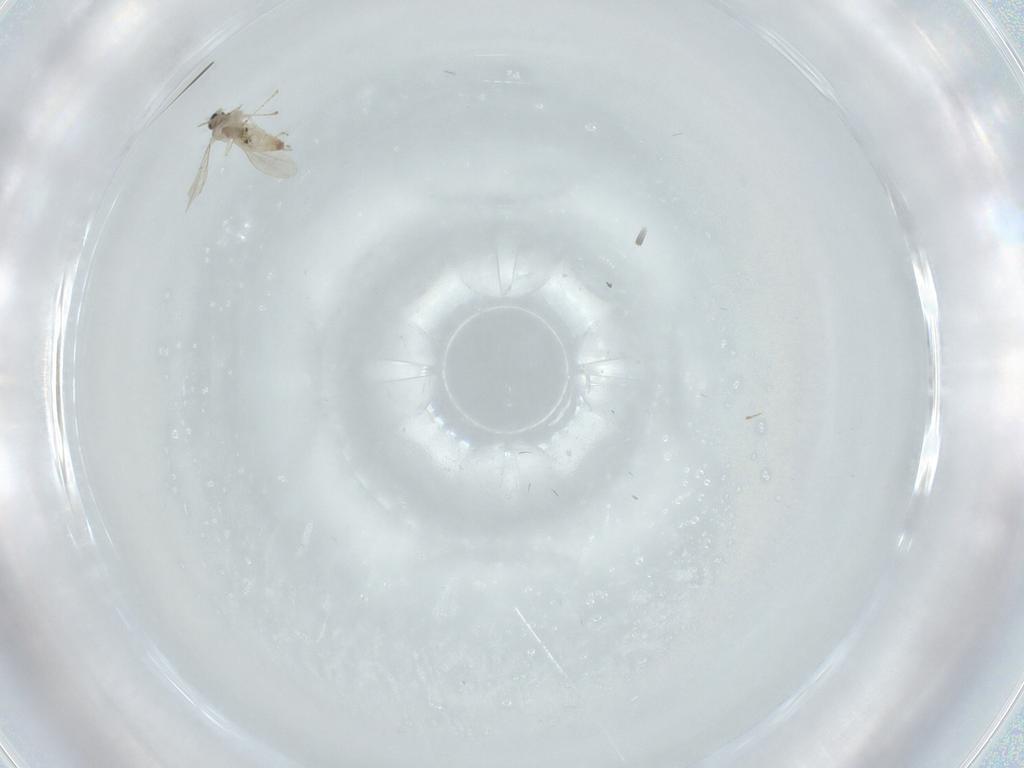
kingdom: Animalia
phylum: Arthropoda
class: Insecta
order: Diptera
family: Cecidomyiidae
